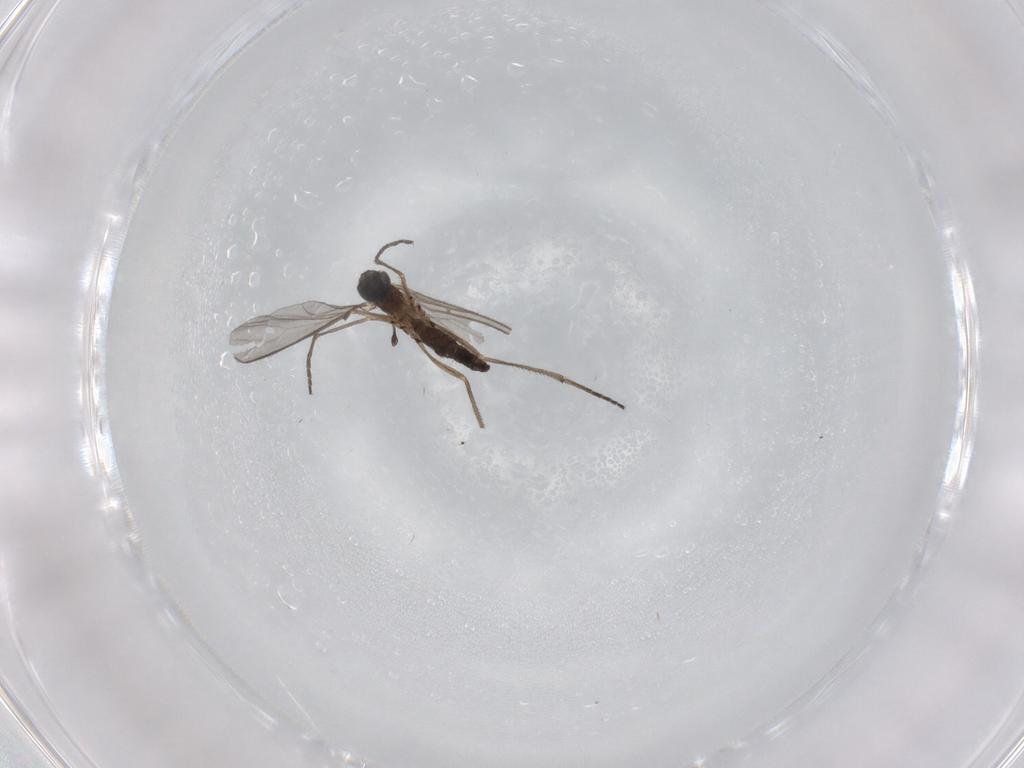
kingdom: Animalia
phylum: Arthropoda
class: Insecta
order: Diptera
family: Sciaridae
